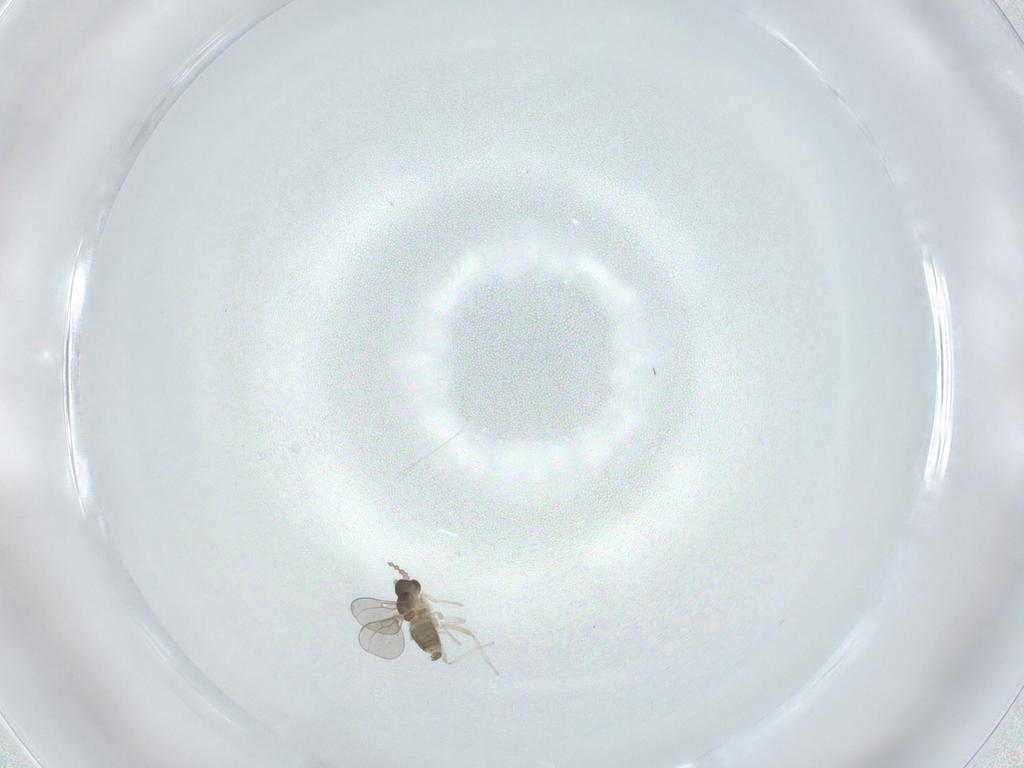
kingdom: Animalia
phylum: Arthropoda
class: Insecta
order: Diptera
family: Cecidomyiidae
